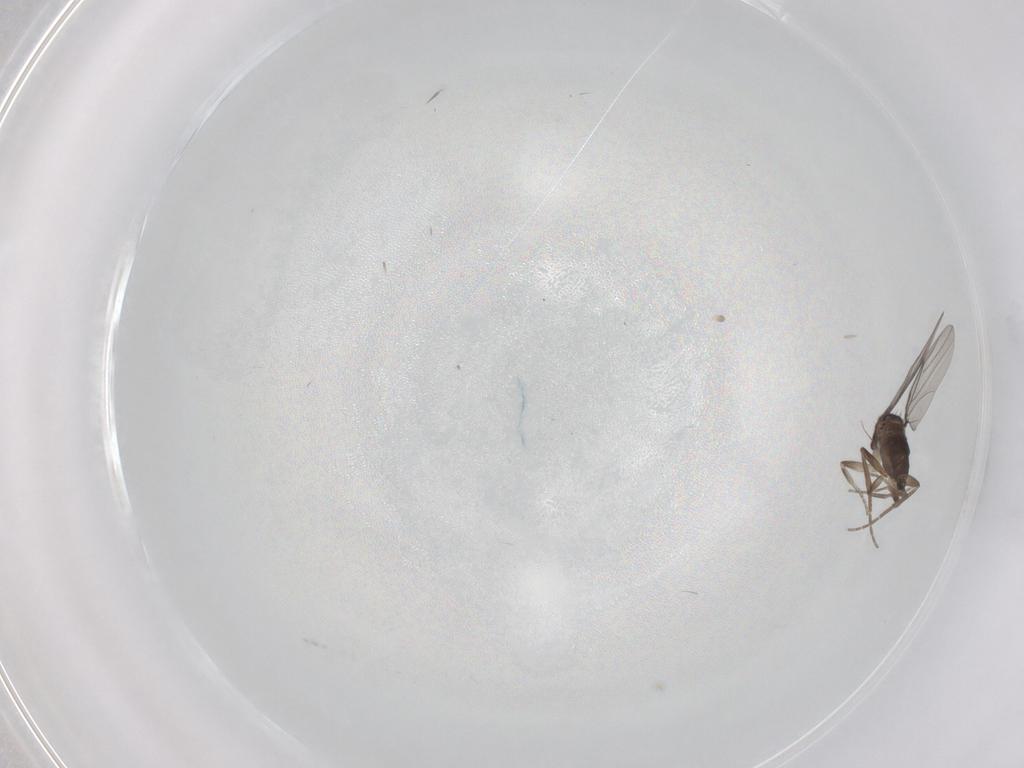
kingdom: Animalia
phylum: Arthropoda
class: Insecta
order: Diptera
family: Phoridae
